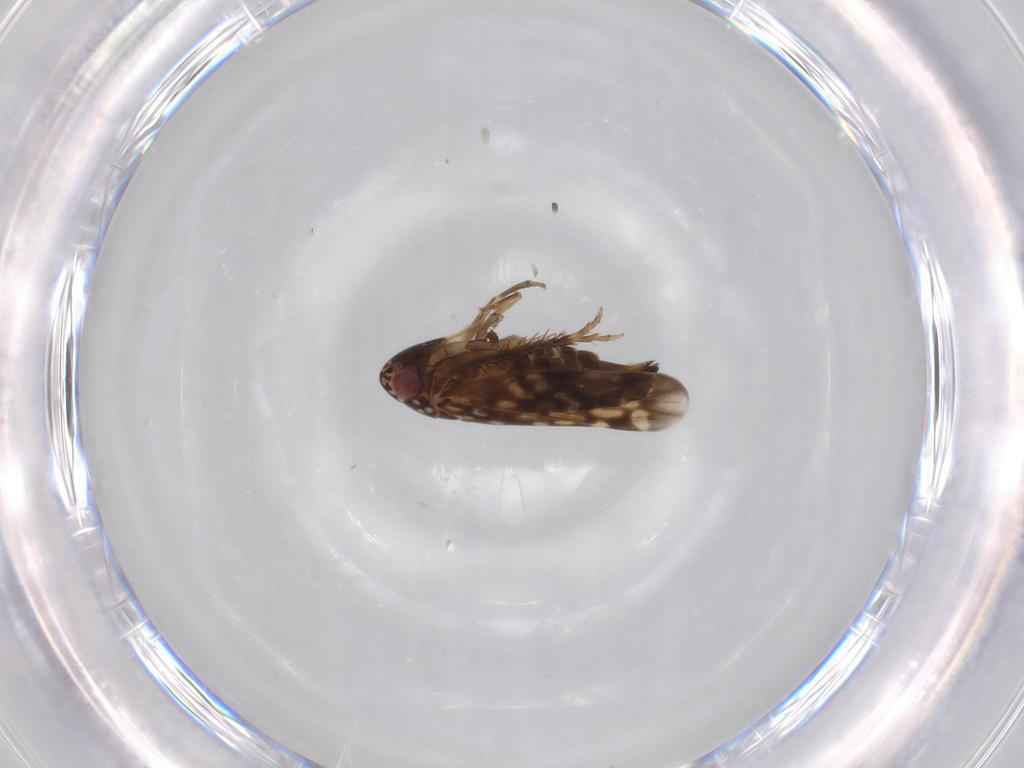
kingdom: Animalia
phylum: Arthropoda
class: Insecta
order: Hemiptera
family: Cicadellidae
